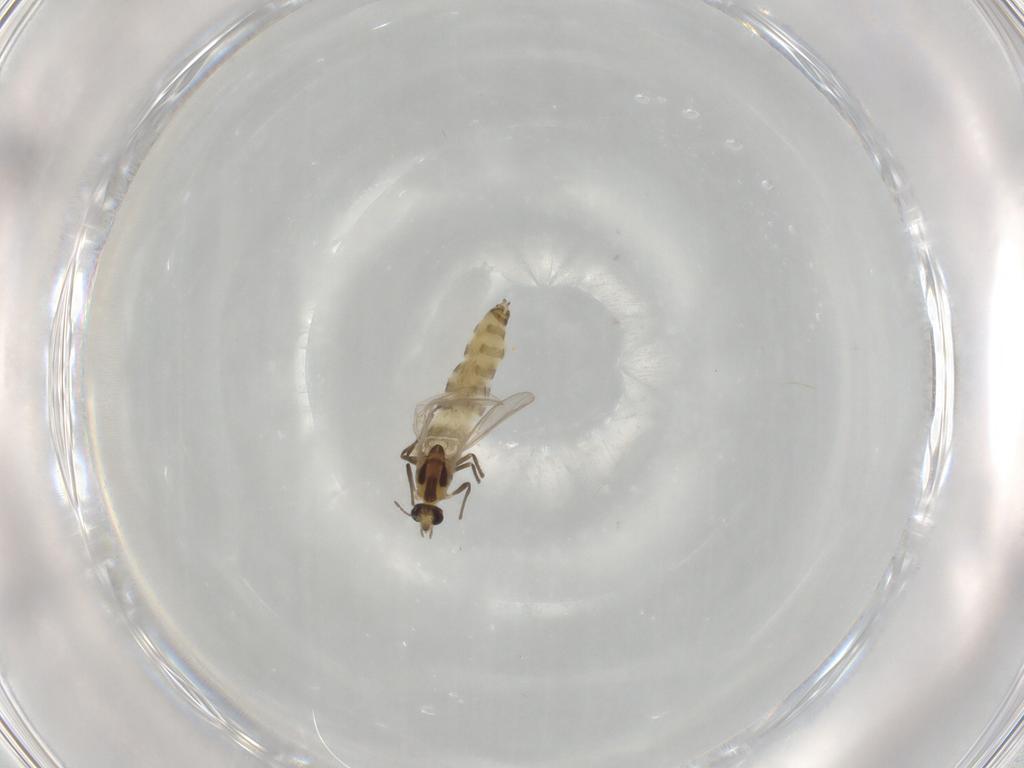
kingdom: Animalia
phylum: Arthropoda
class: Insecta
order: Diptera
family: Chironomidae
